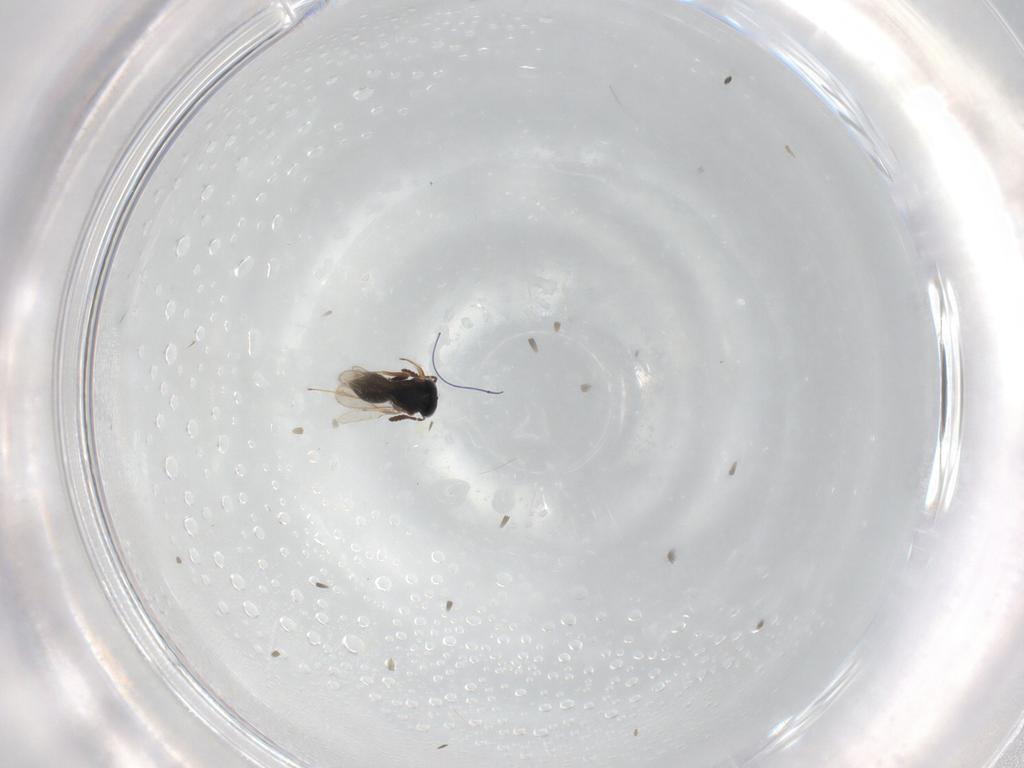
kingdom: Animalia
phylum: Arthropoda
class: Insecta
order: Hymenoptera
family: Scelionidae
